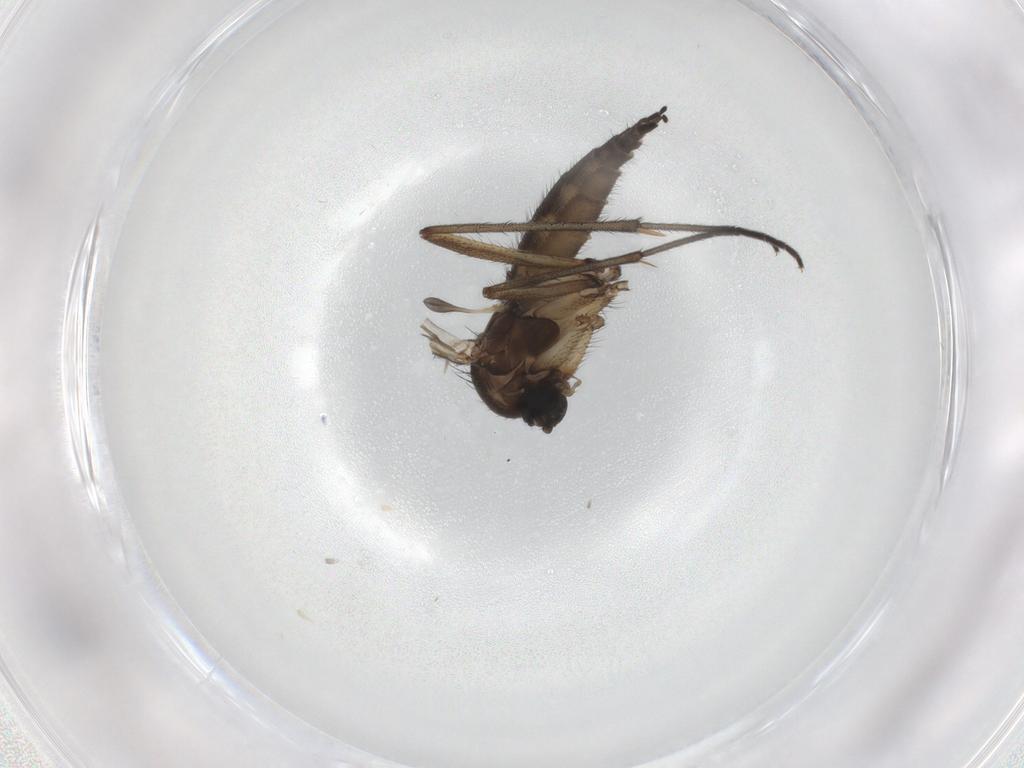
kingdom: Animalia
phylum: Arthropoda
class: Insecta
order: Diptera
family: Sciaridae
